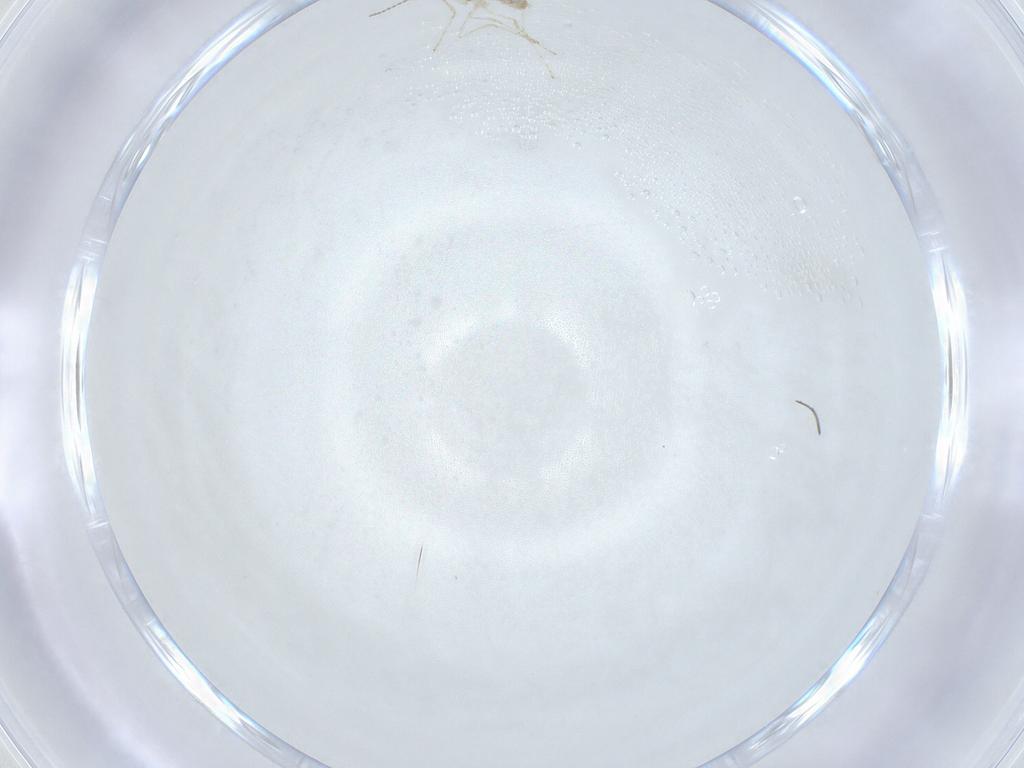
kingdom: Animalia
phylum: Arthropoda
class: Insecta
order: Diptera
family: Cecidomyiidae
